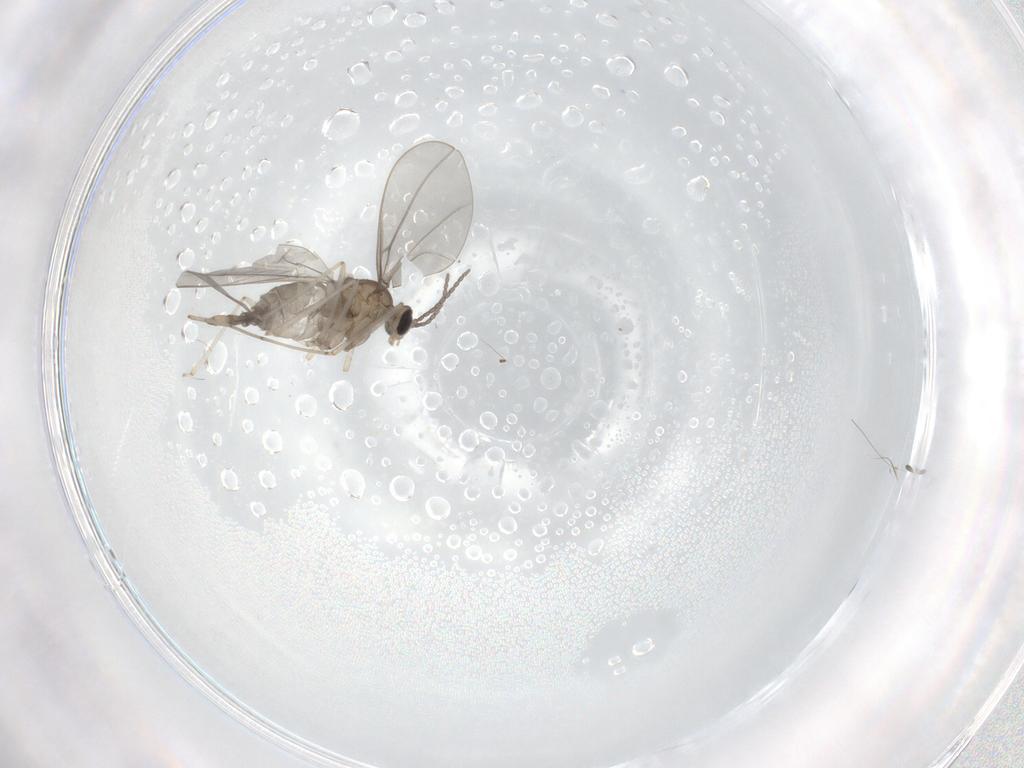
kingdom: Animalia
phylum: Arthropoda
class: Insecta
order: Diptera
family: Cecidomyiidae
